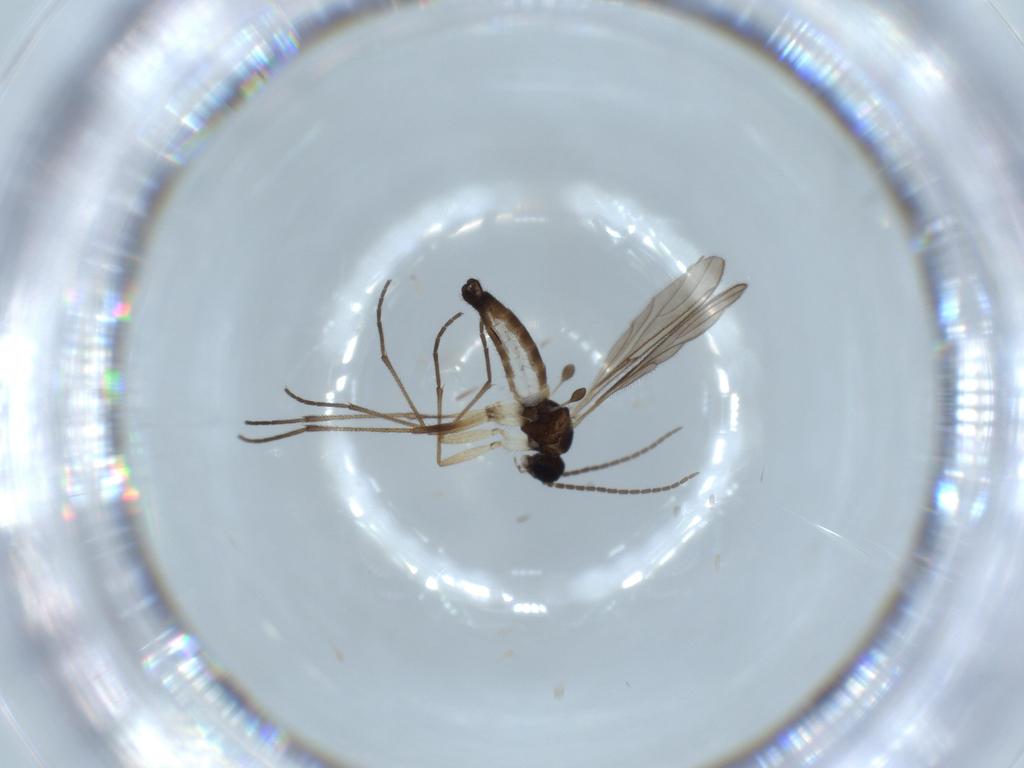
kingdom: Animalia
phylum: Arthropoda
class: Insecta
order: Diptera
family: Sciaridae
